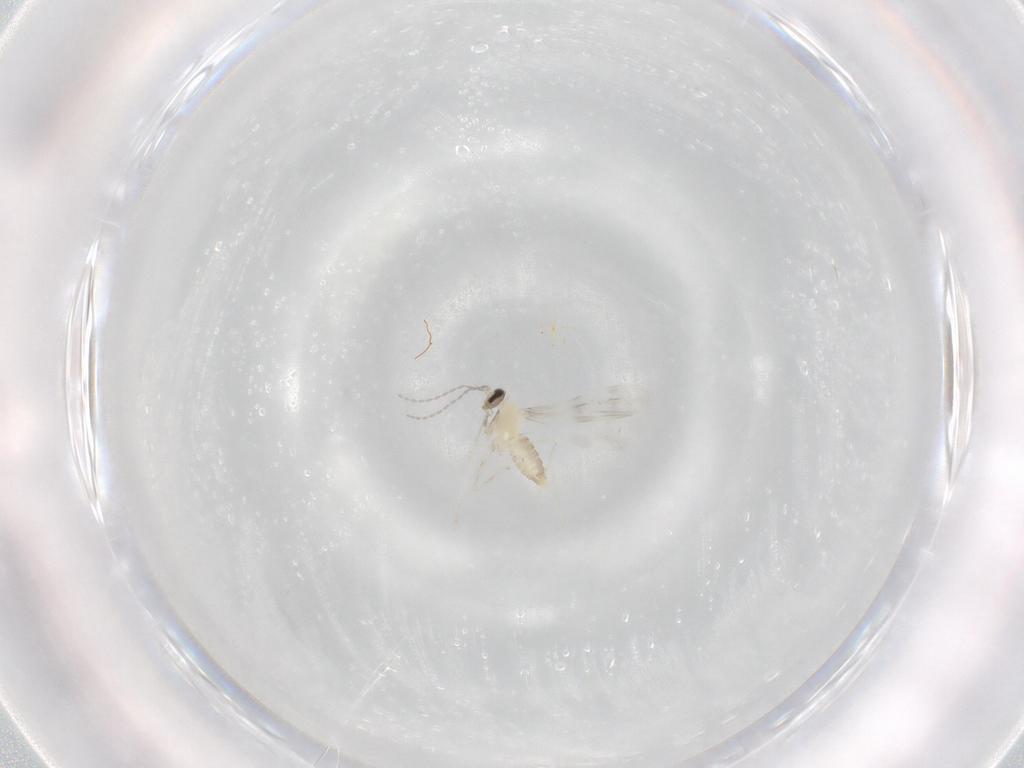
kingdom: Animalia
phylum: Arthropoda
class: Insecta
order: Diptera
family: Cecidomyiidae
